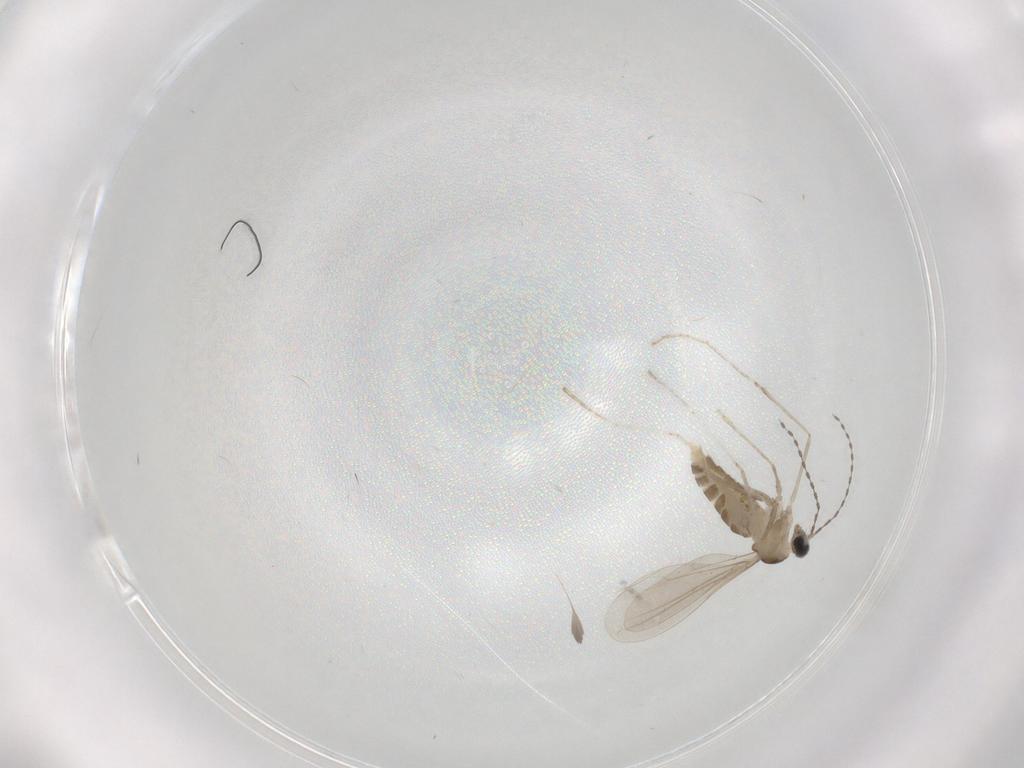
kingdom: Animalia
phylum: Arthropoda
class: Insecta
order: Diptera
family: Cecidomyiidae
